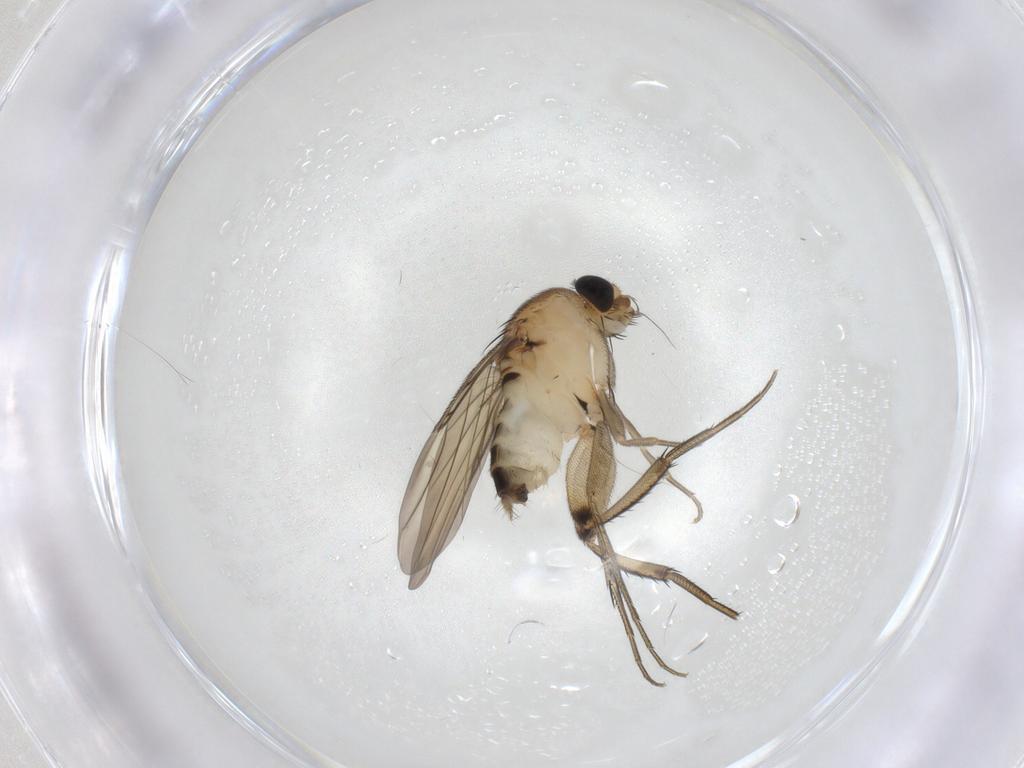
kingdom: Animalia
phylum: Arthropoda
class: Insecta
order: Diptera
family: Phoridae
